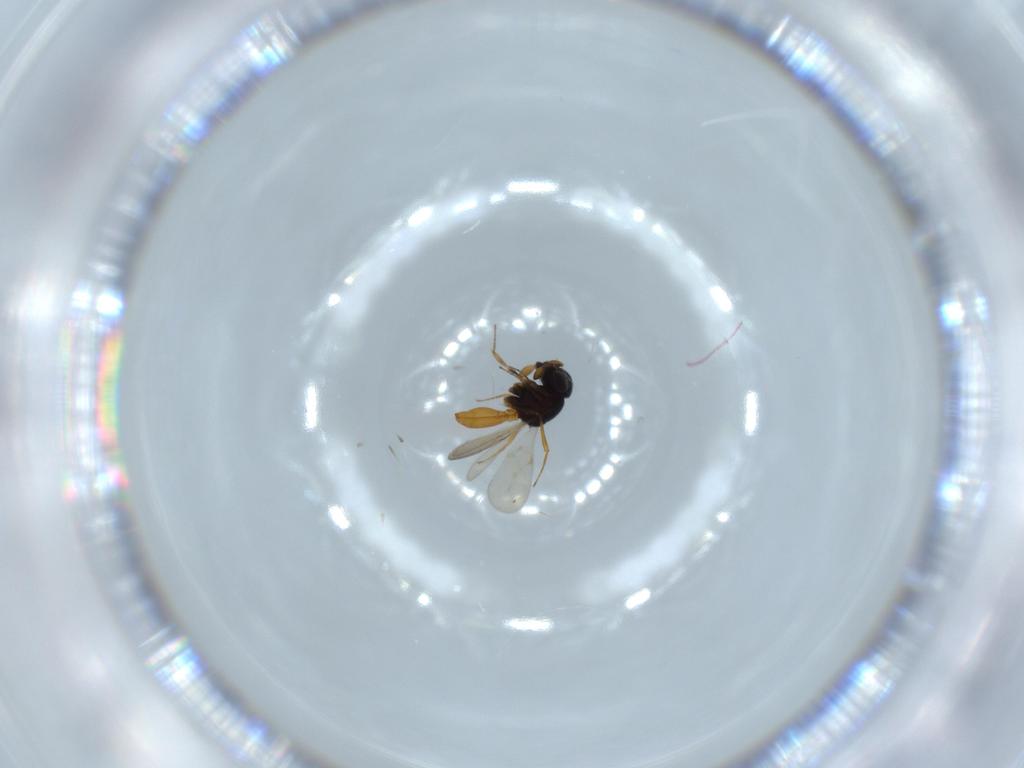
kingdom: Animalia
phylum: Arthropoda
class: Insecta
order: Hymenoptera
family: Scelionidae
